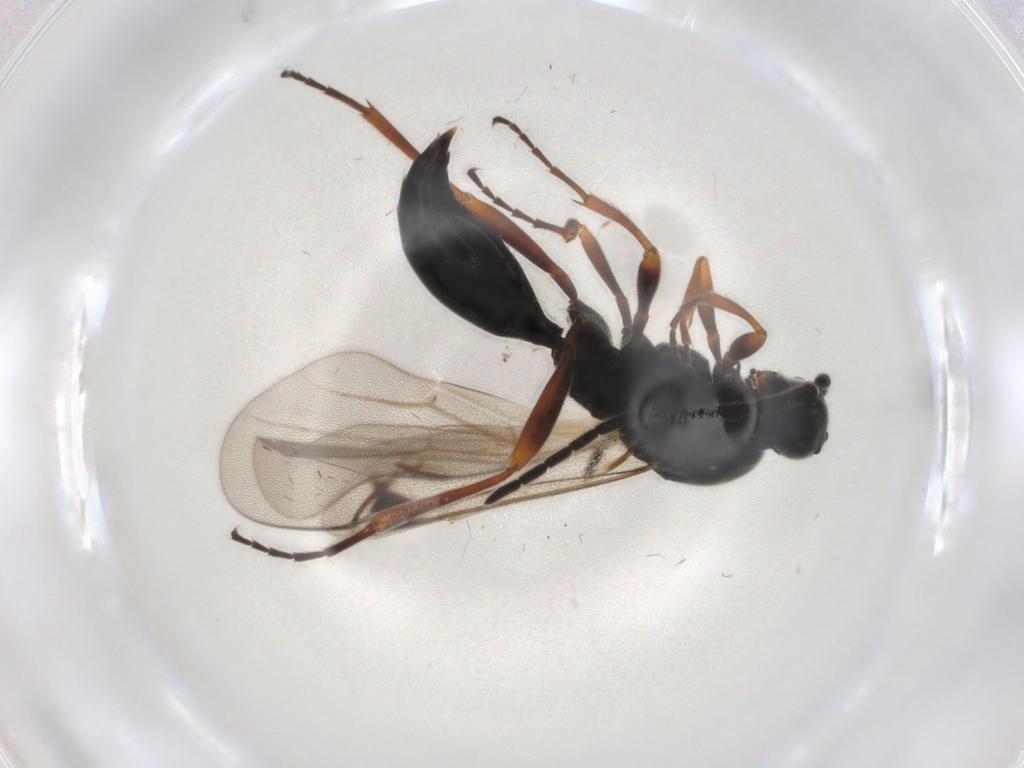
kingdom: Animalia
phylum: Arthropoda
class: Insecta
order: Hymenoptera
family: Proctotrupidae
